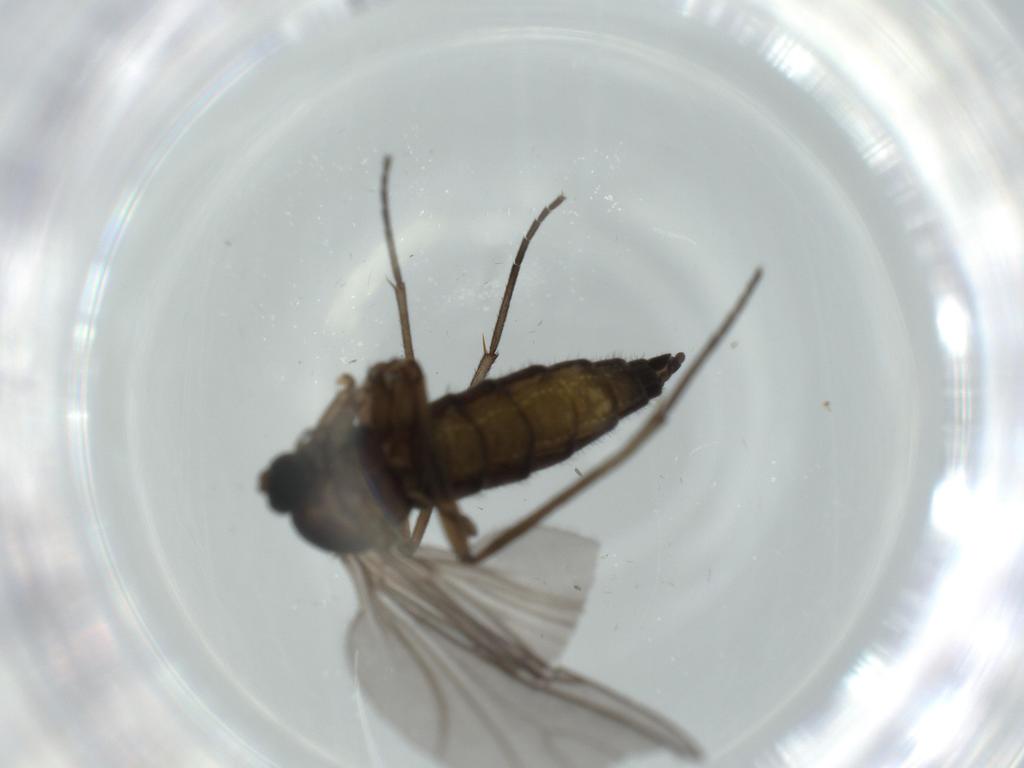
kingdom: Animalia
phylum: Arthropoda
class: Insecta
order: Diptera
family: Sciaridae
